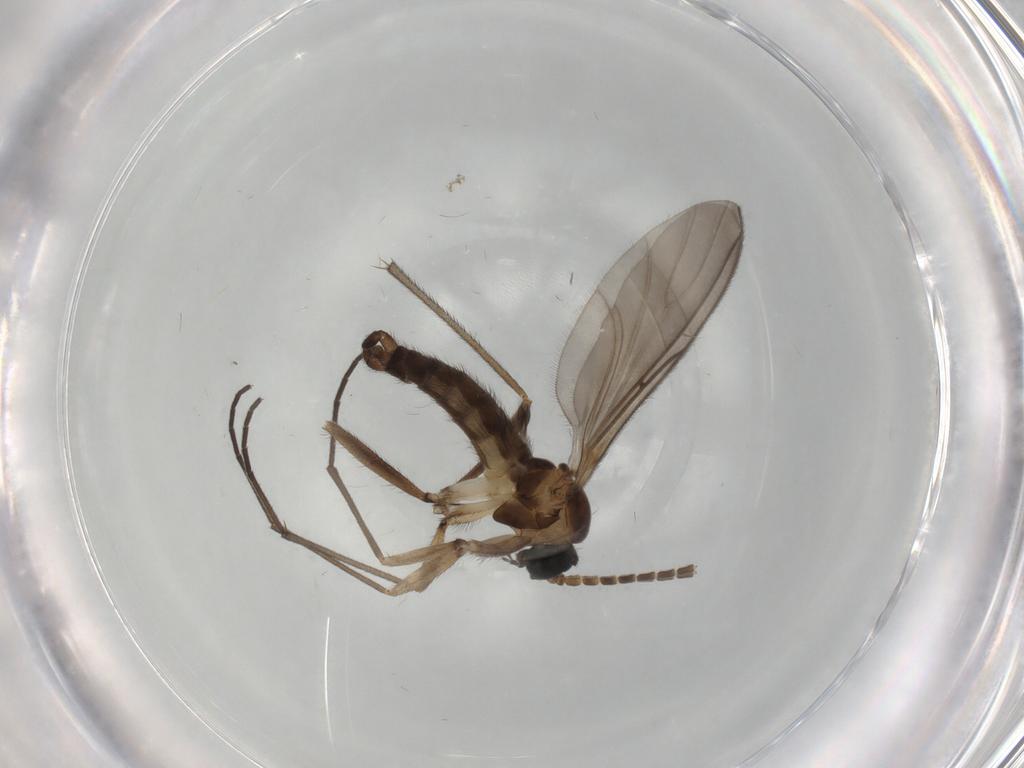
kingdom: Animalia
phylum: Arthropoda
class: Insecta
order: Diptera
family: Sciaridae
